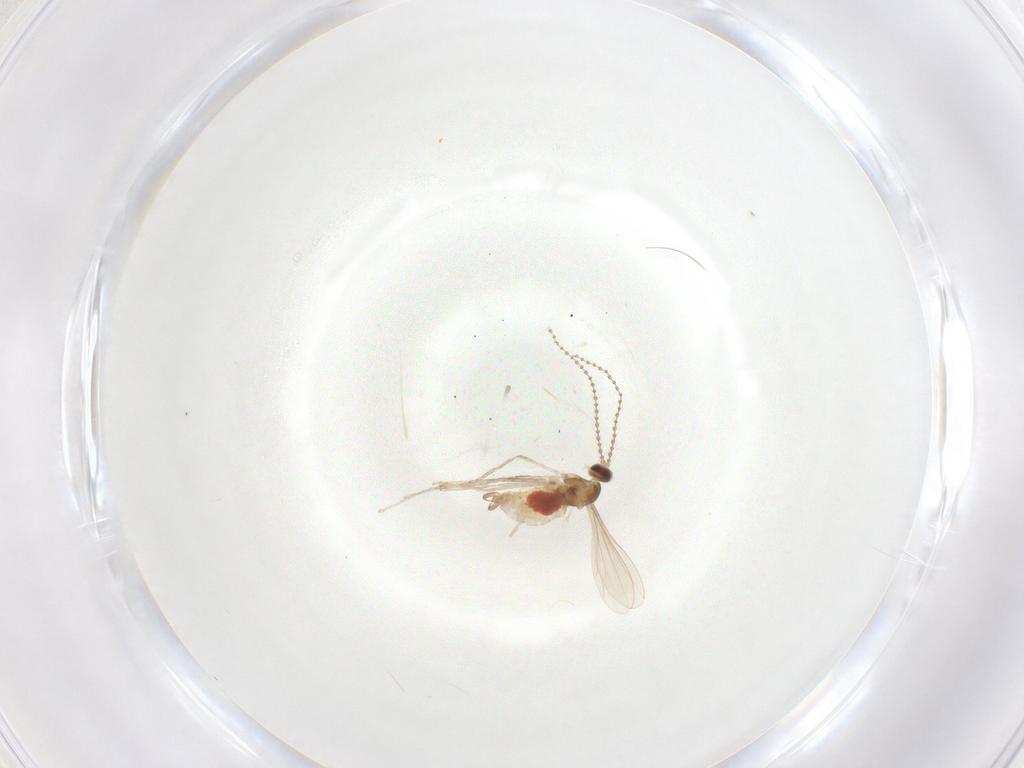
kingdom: Animalia
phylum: Arthropoda
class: Insecta
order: Diptera
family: Cecidomyiidae
